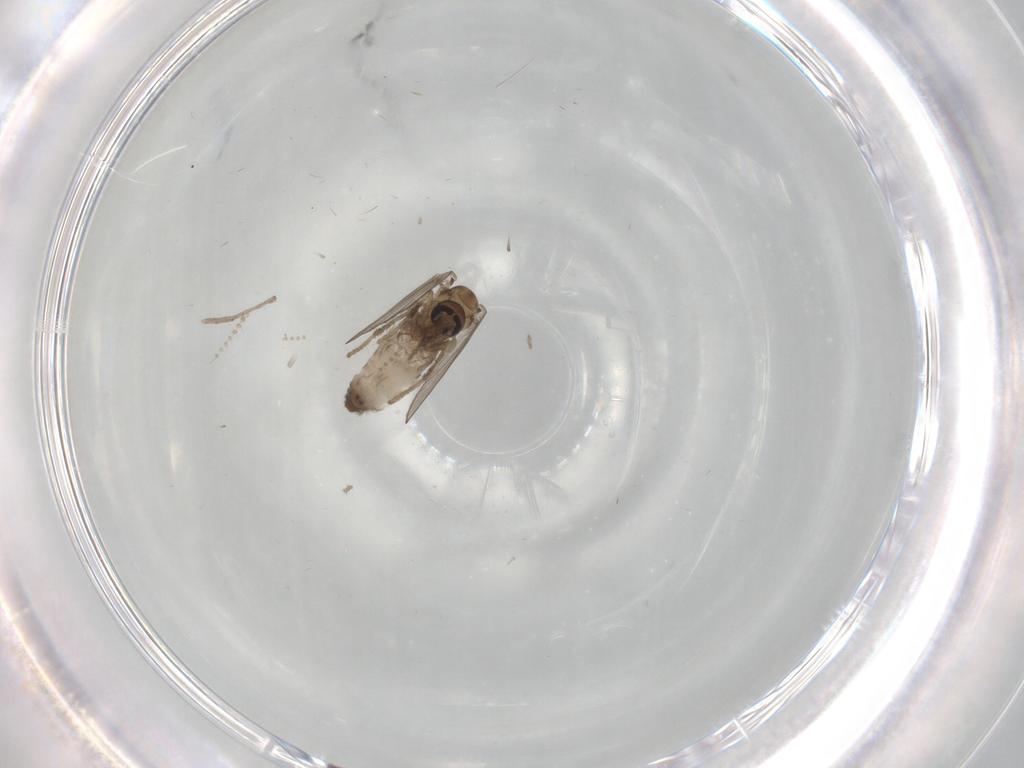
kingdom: Animalia
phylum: Arthropoda
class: Insecta
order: Diptera
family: Psychodidae
